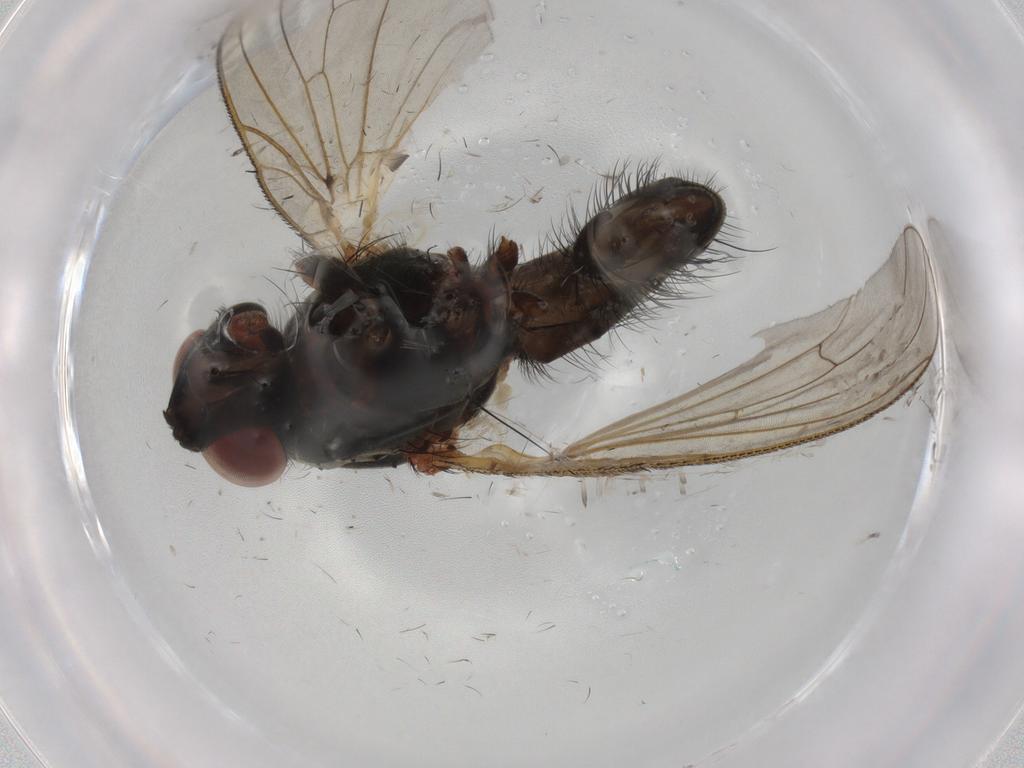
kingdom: Animalia
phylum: Arthropoda
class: Insecta
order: Diptera
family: Anthomyiidae
